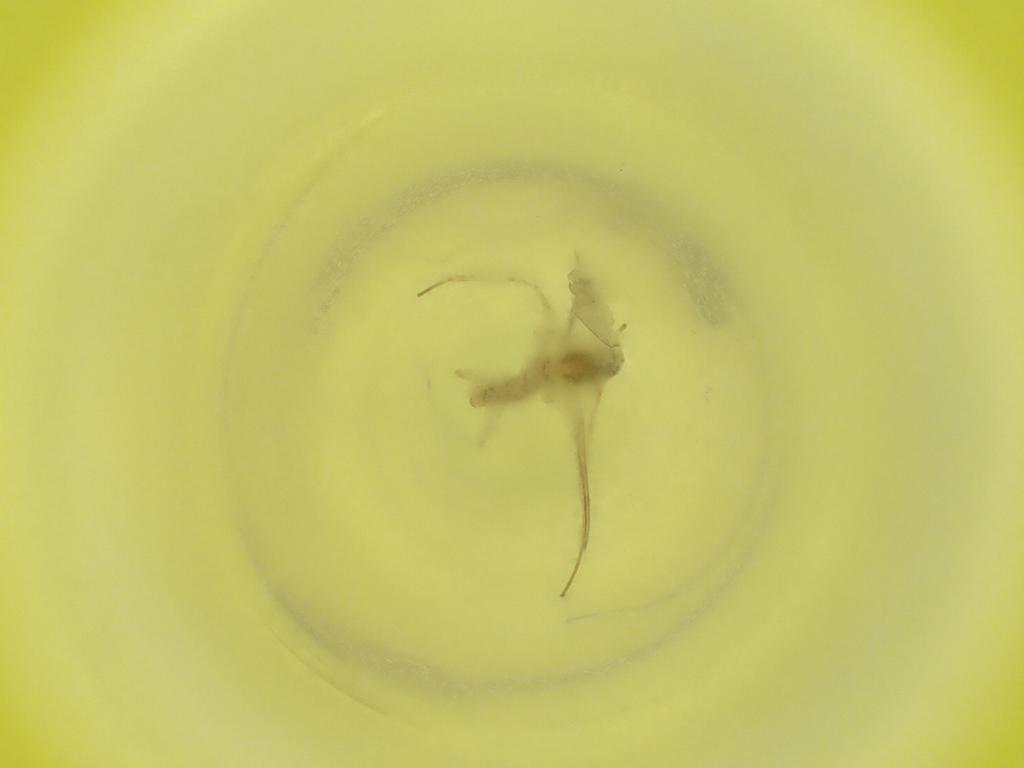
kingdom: Animalia
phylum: Arthropoda
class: Insecta
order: Diptera
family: Cecidomyiidae
